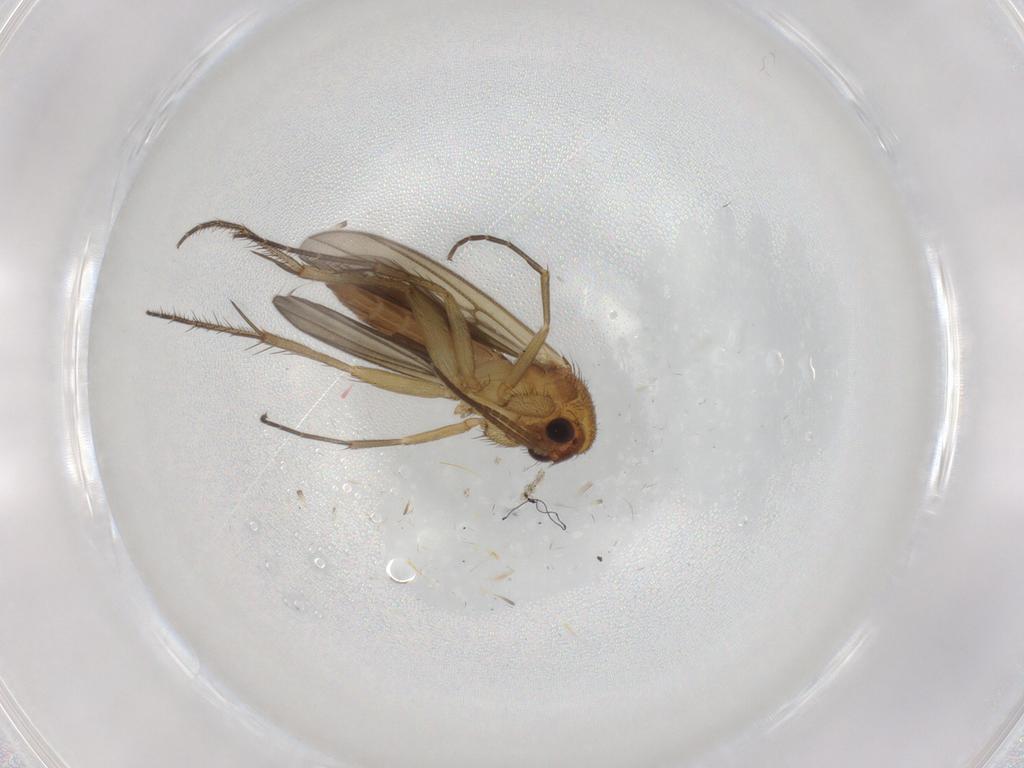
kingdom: Animalia
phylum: Arthropoda
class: Insecta
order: Diptera
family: Mycetophilidae
